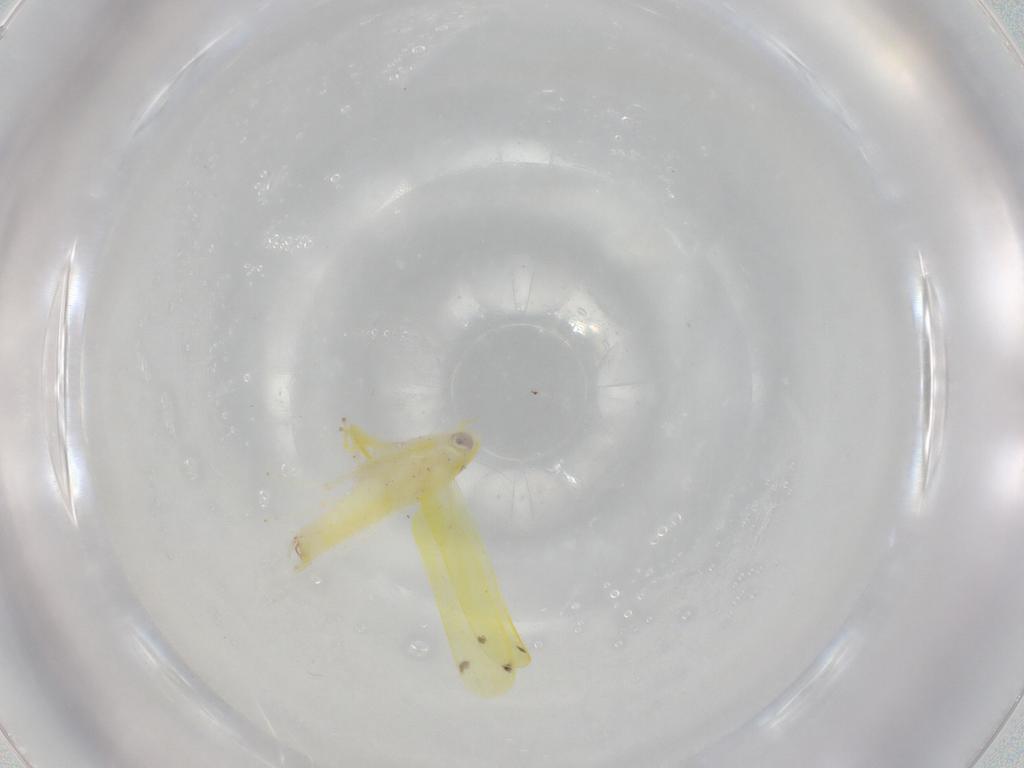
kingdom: Animalia
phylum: Arthropoda
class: Insecta
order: Hemiptera
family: Cicadellidae
